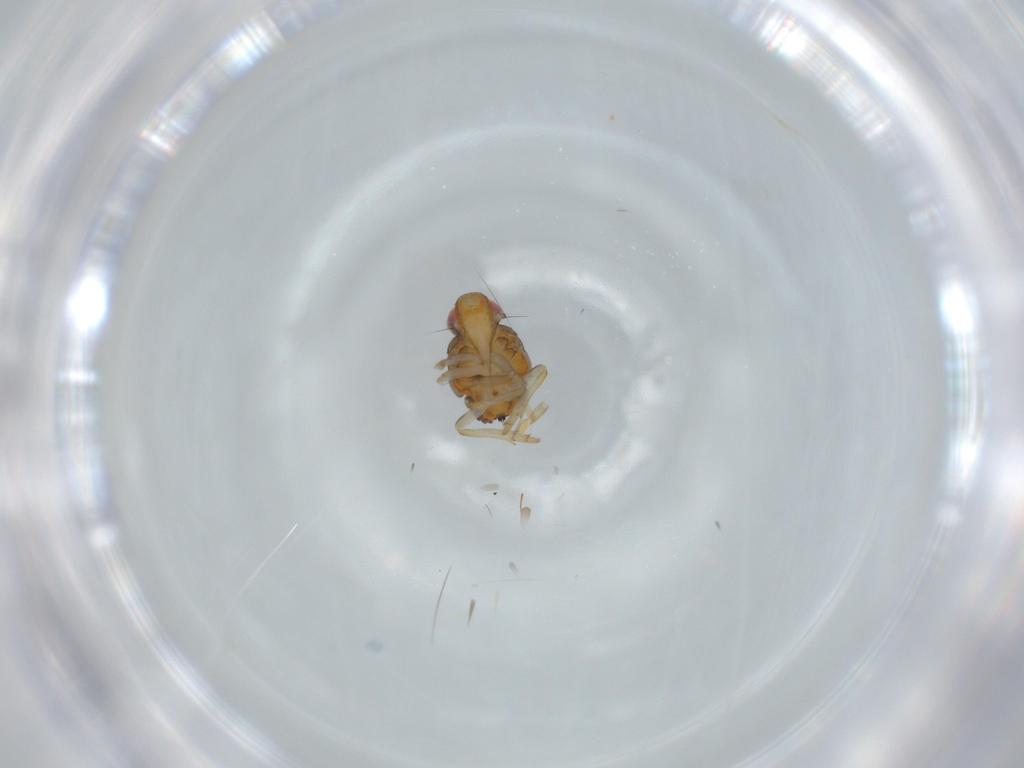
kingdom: Animalia
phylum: Arthropoda
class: Insecta
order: Hemiptera
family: Issidae
